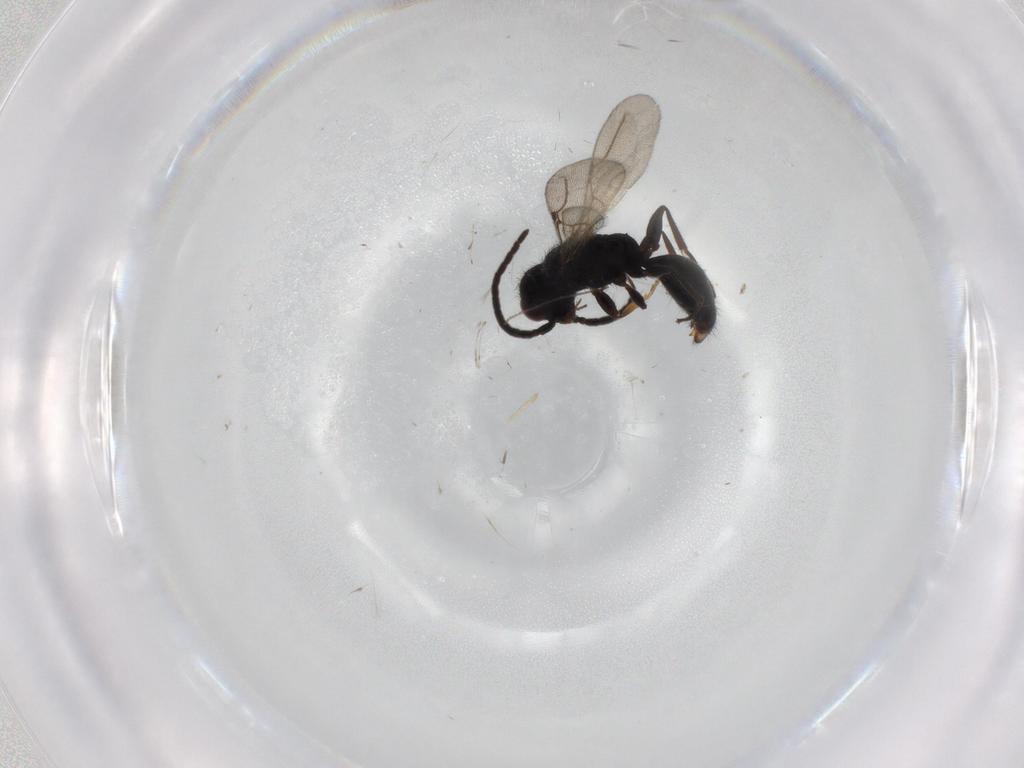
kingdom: Animalia
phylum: Arthropoda
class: Insecta
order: Hymenoptera
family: Bethylidae
